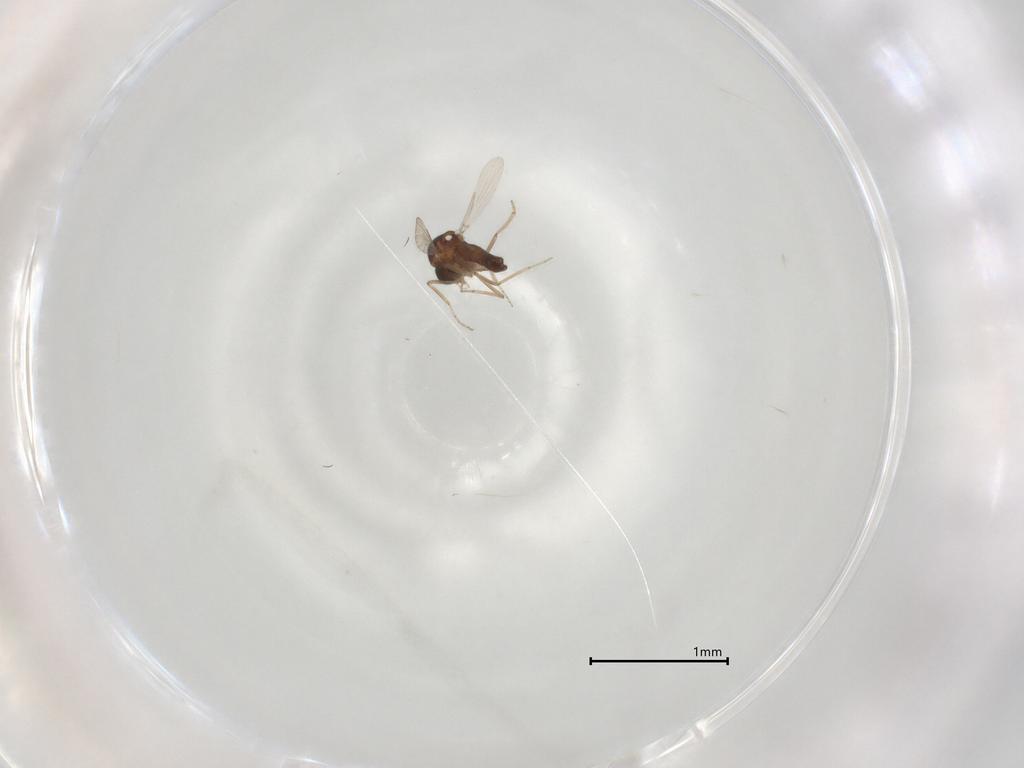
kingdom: Animalia
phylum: Arthropoda
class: Insecta
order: Diptera
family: Ceratopogonidae
